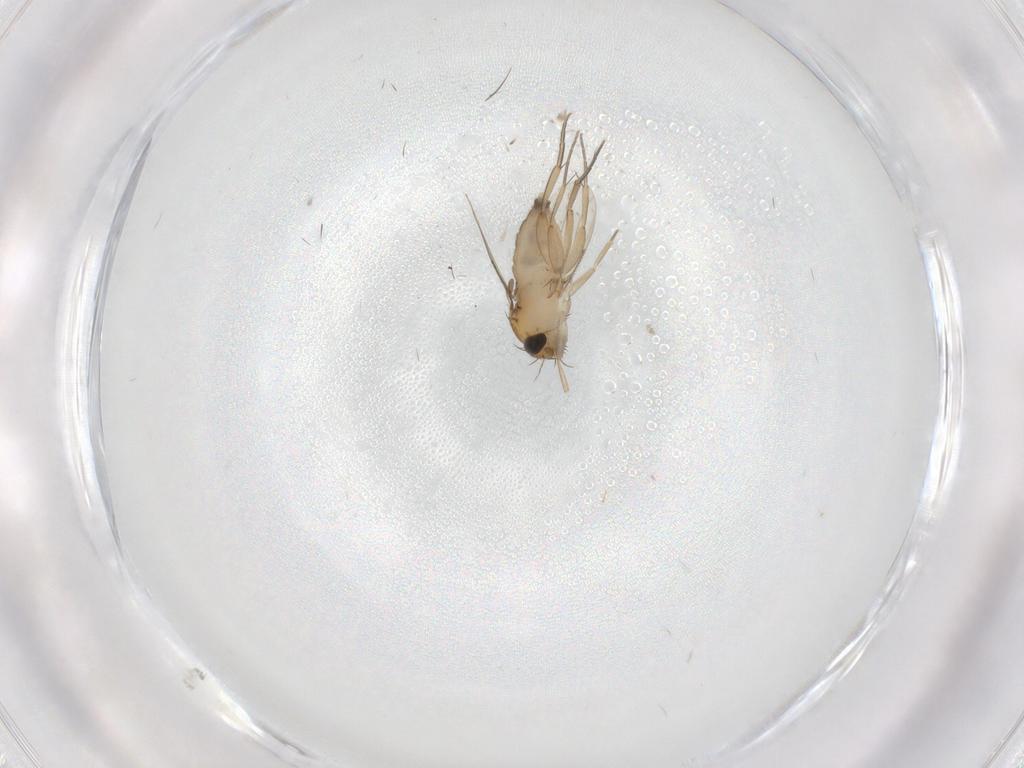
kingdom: Animalia
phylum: Arthropoda
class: Insecta
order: Diptera
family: Phoridae
